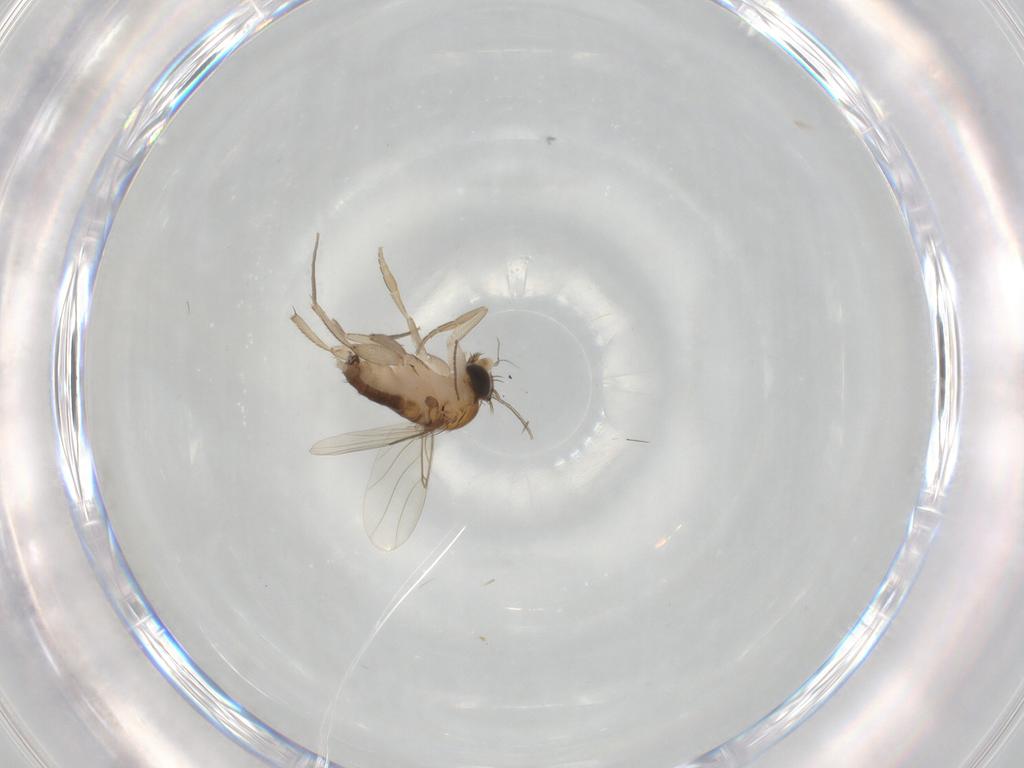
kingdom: Animalia
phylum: Arthropoda
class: Insecta
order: Diptera
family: Phoridae
